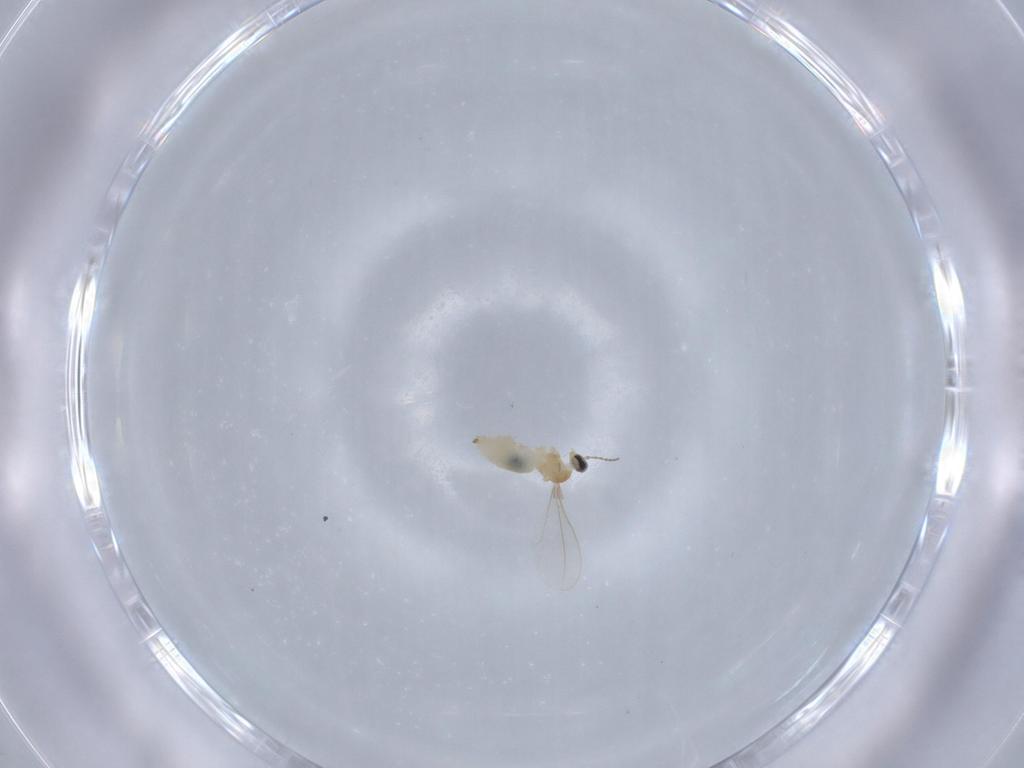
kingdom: Animalia
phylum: Arthropoda
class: Insecta
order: Diptera
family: Cecidomyiidae
